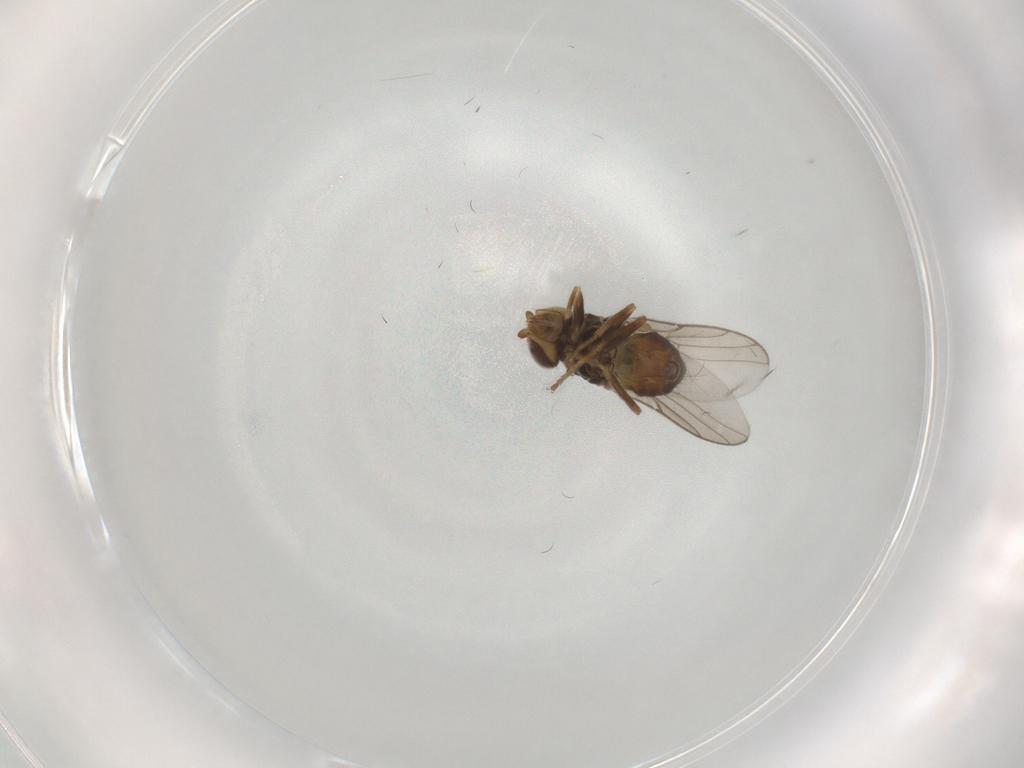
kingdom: Animalia
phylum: Arthropoda
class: Insecta
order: Diptera
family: Chloropidae
